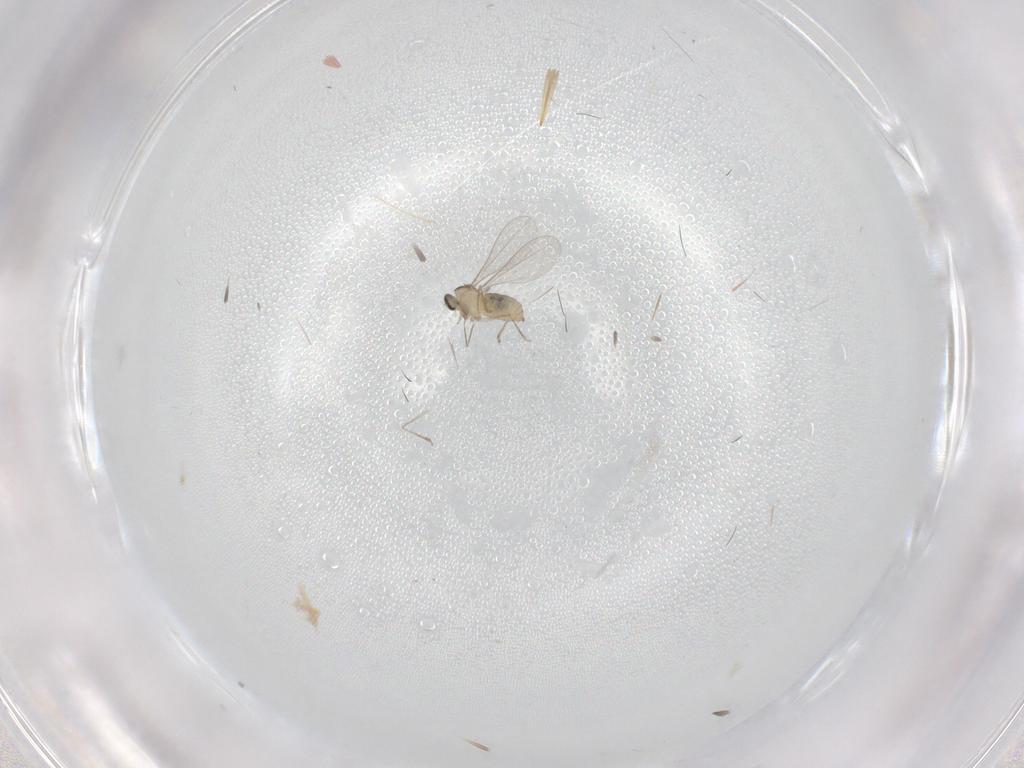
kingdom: Animalia
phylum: Arthropoda
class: Insecta
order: Diptera
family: Cecidomyiidae
